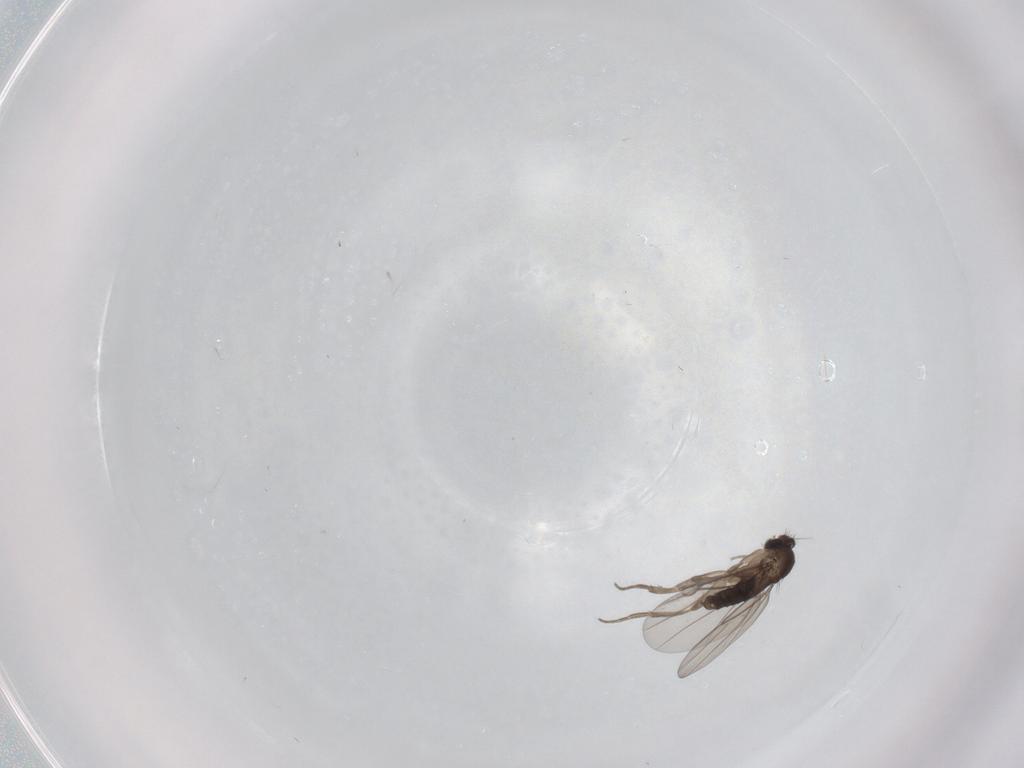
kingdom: Animalia
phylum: Arthropoda
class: Insecta
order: Diptera
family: Phoridae
